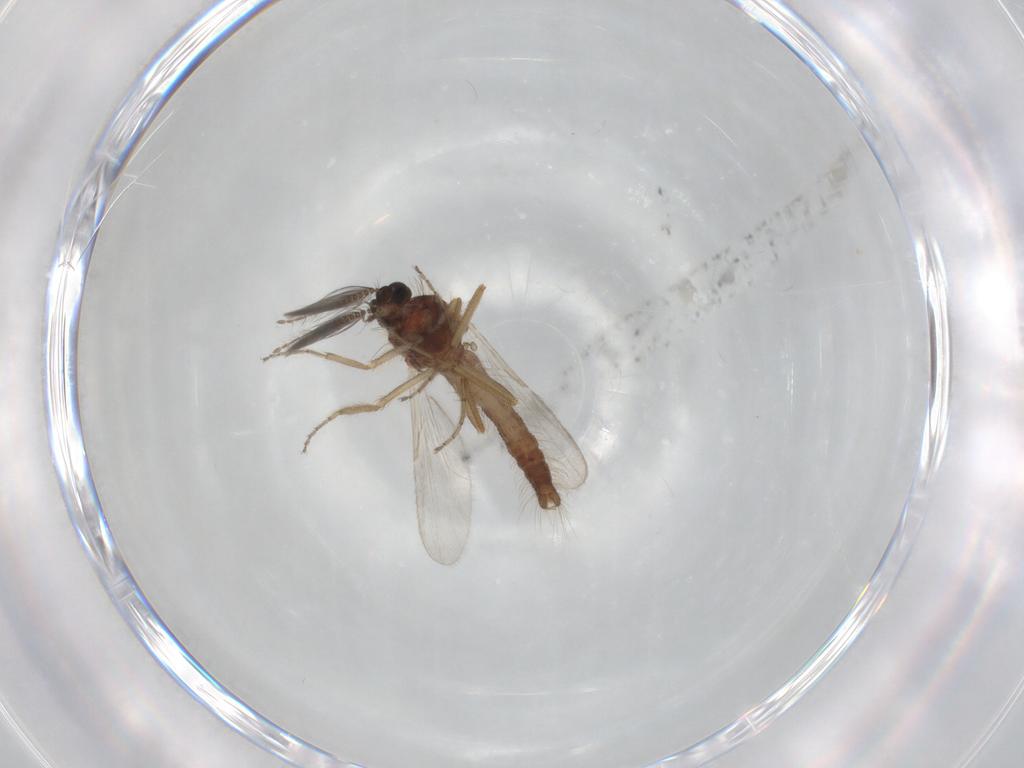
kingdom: Animalia
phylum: Arthropoda
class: Insecta
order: Diptera
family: Ceratopogonidae
